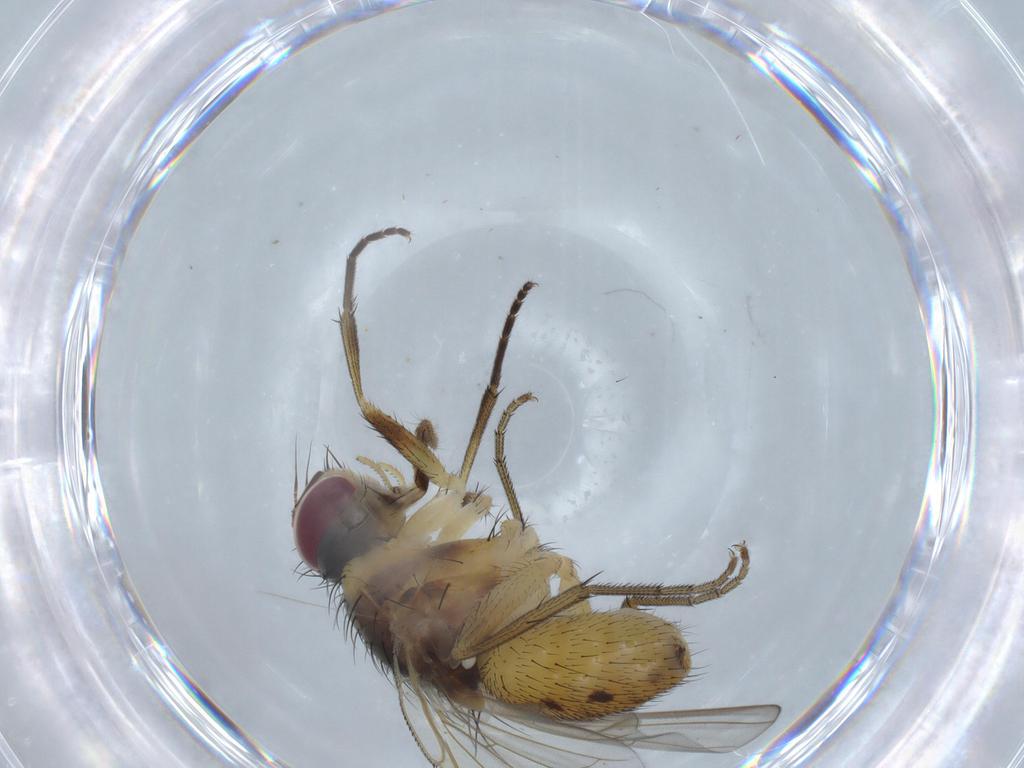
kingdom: Animalia
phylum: Arthropoda
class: Insecta
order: Diptera
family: Muscidae
